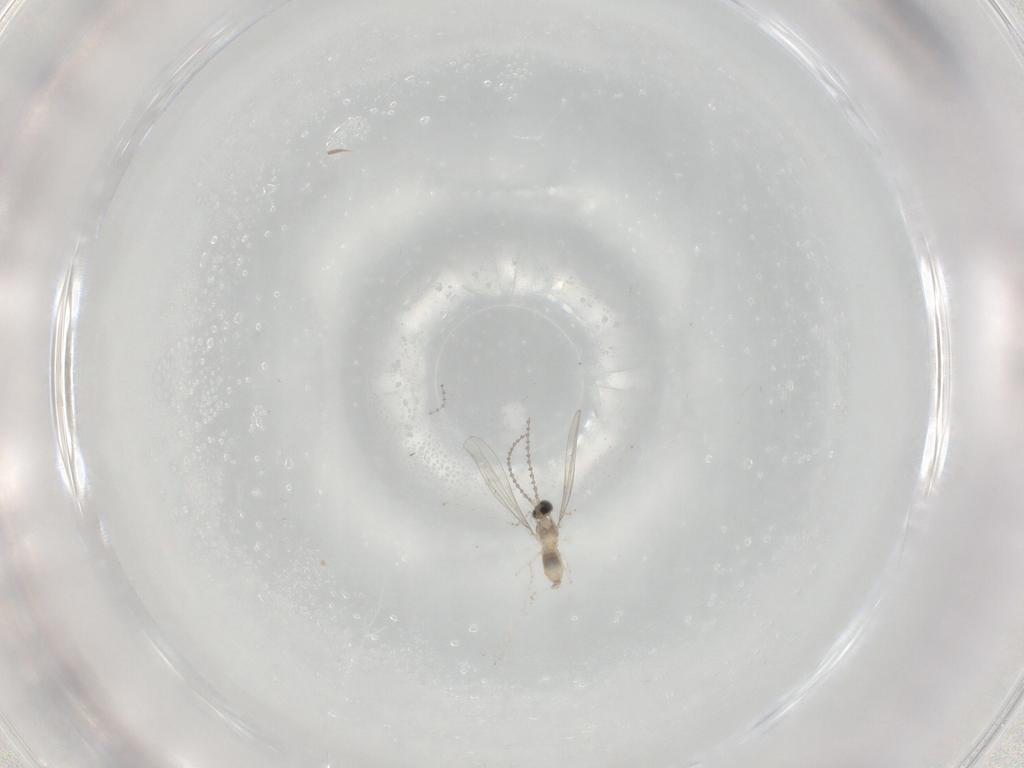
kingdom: Animalia
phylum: Arthropoda
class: Insecta
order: Diptera
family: Cecidomyiidae
